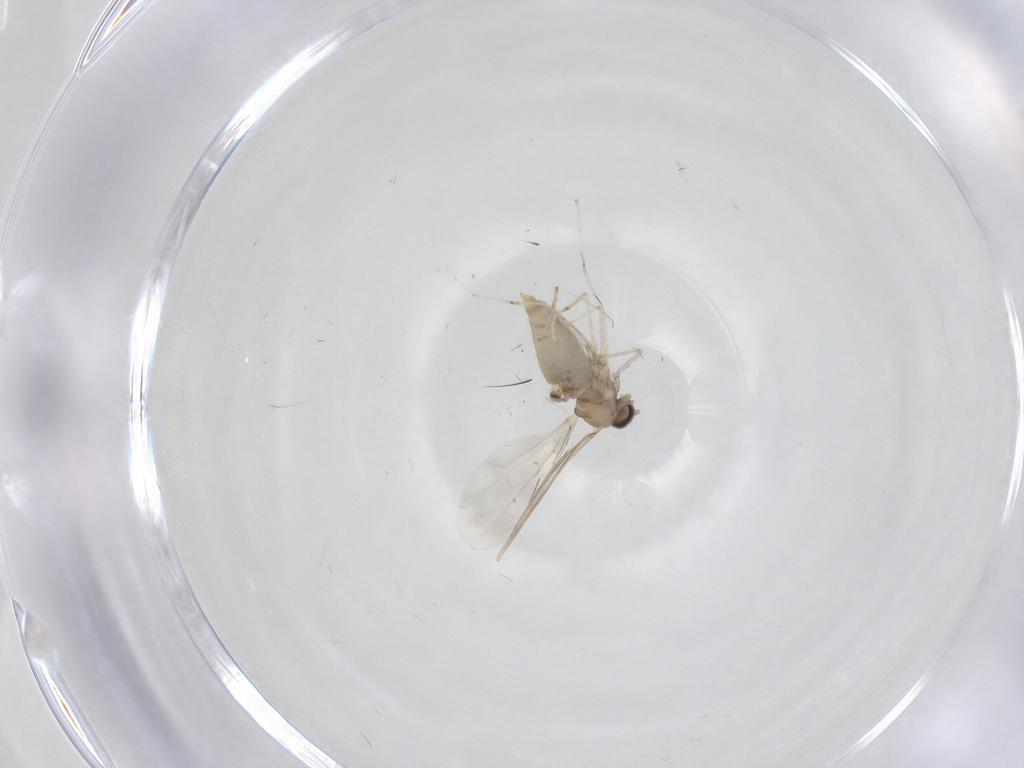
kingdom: Animalia
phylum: Arthropoda
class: Insecta
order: Diptera
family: Cecidomyiidae
